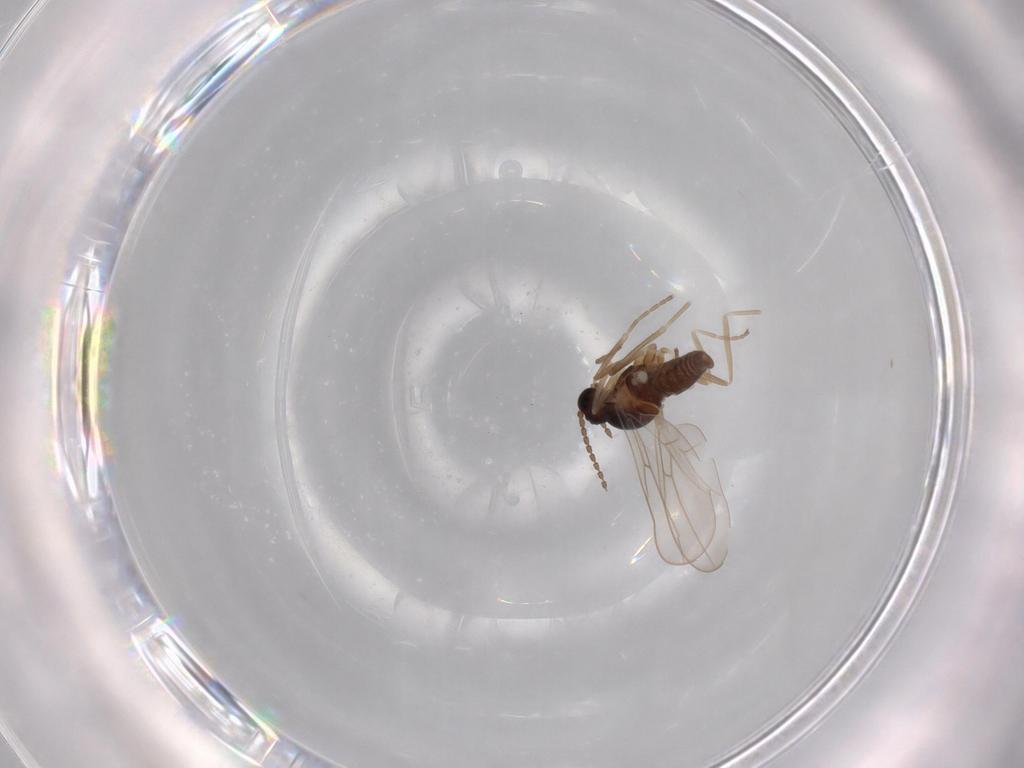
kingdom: Animalia
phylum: Arthropoda
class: Insecta
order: Diptera
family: Cecidomyiidae
